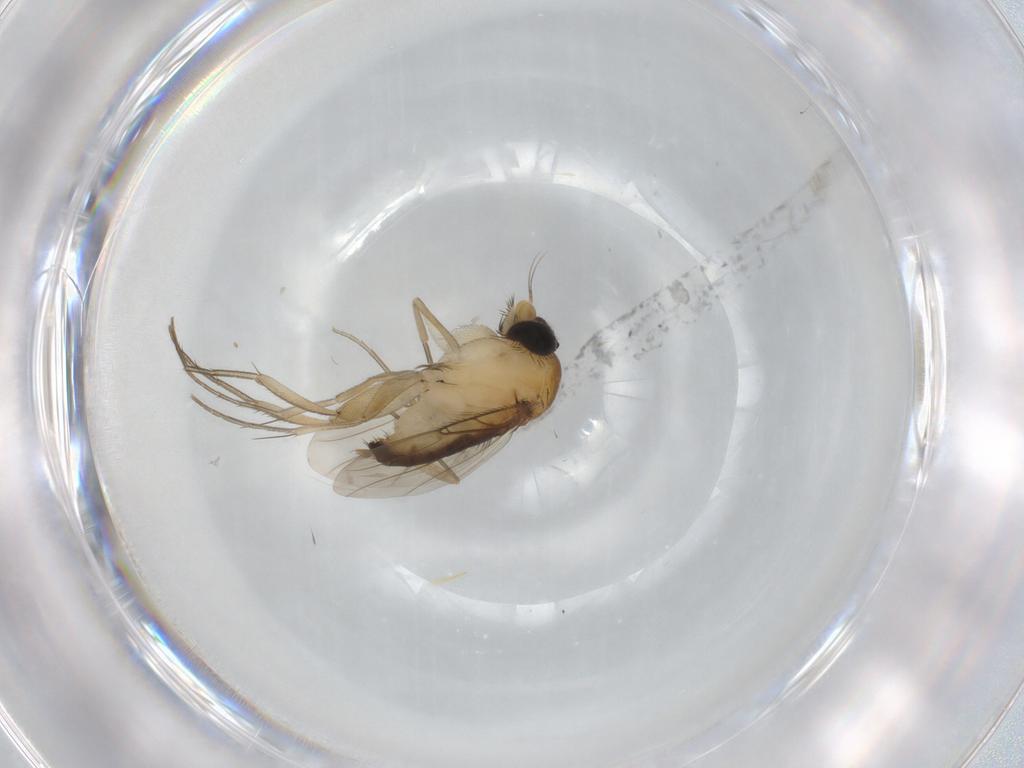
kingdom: Animalia
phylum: Arthropoda
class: Insecta
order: Diptera
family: Phoridae
